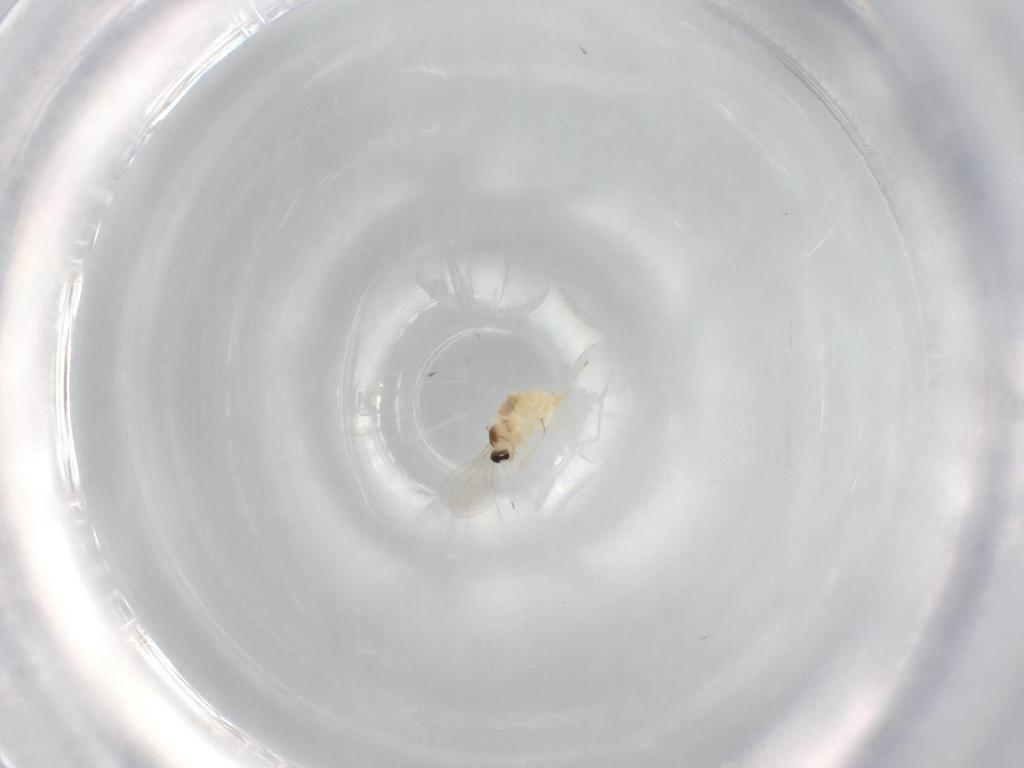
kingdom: Animalia
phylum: Arthropoda
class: Insecta
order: Diptera
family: Cecidomyiidae
